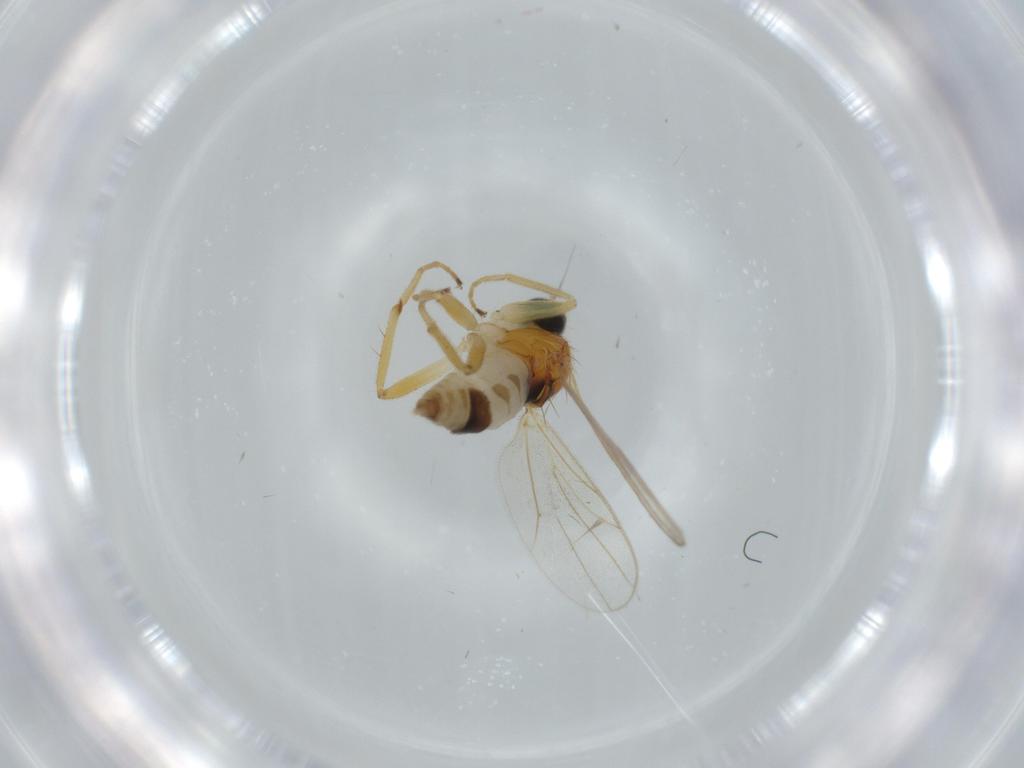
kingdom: Animalia
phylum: Arthropoda
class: Insecta
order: Diptera
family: Hybotidae
